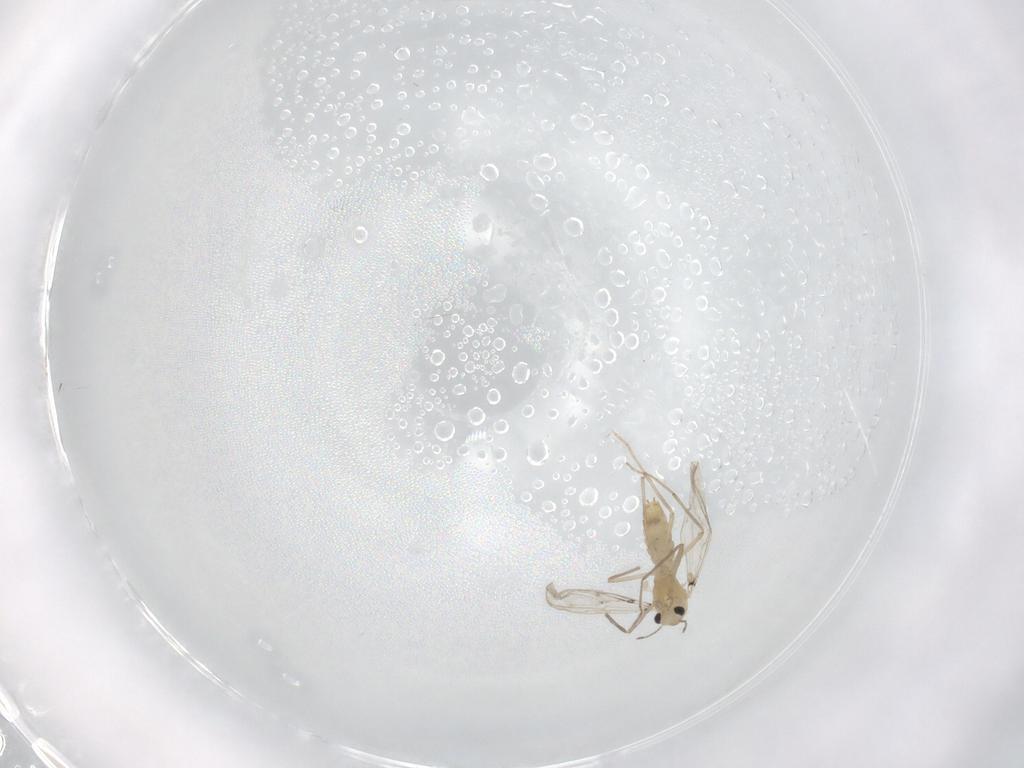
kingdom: Animalia
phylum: Arthropoda
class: Insecta
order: Diptera
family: Chironomidae
